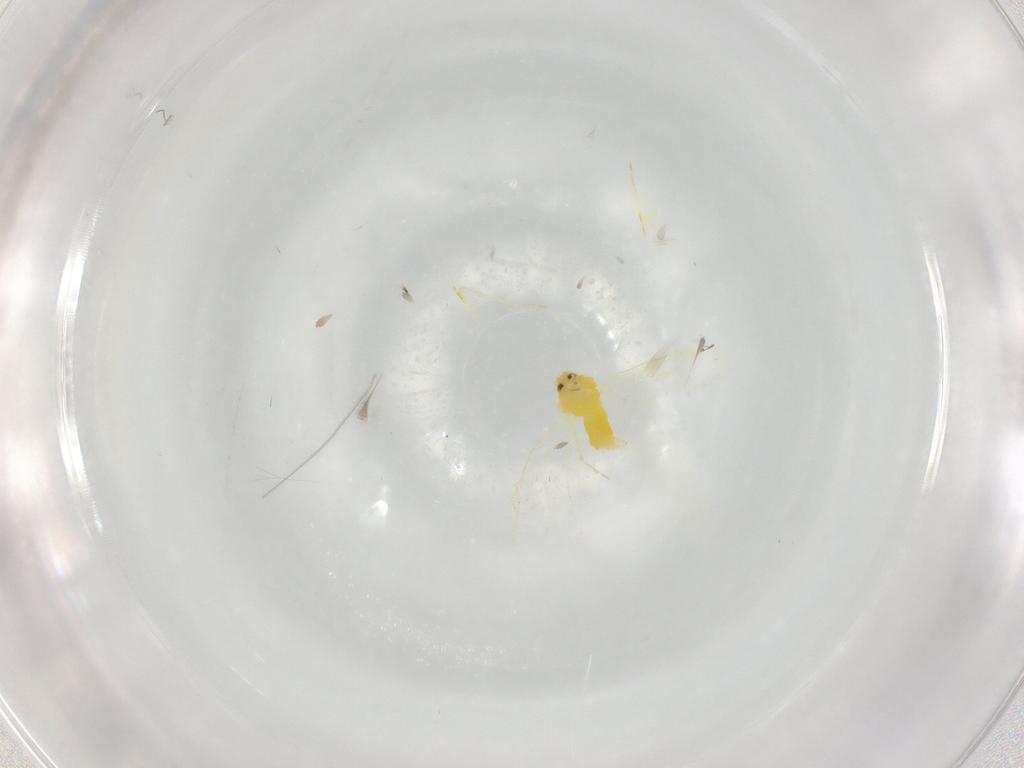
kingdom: Animalia
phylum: Arthropoda
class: Insecta
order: Hemiptera
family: Aleyrodidae
